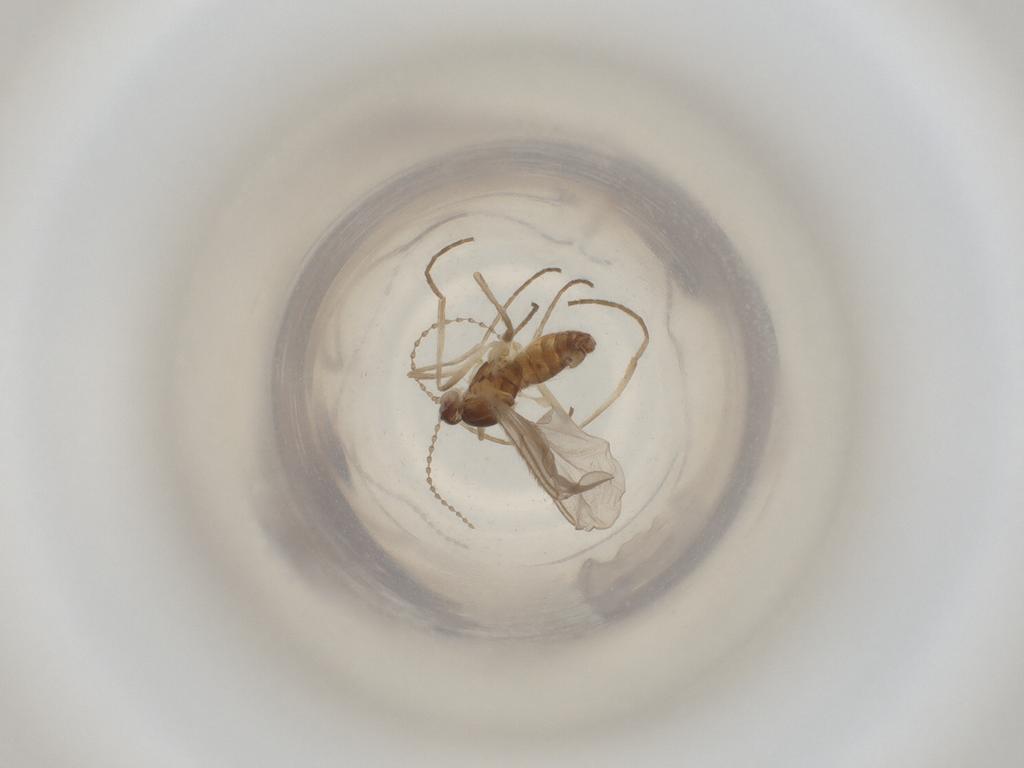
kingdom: Animalia
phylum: Arthropoda
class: Insecta
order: Diptera
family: Cecidomyiidae
